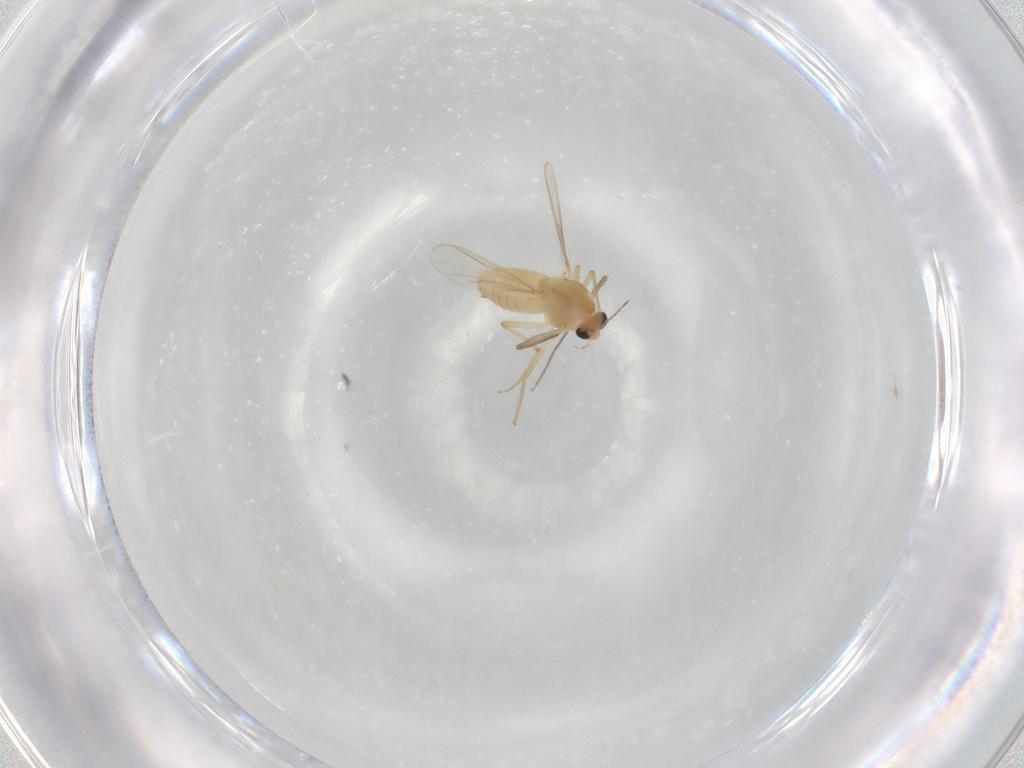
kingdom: Animalia
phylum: Arthropoda
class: Insecta
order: Diptera
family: Chironomidae
